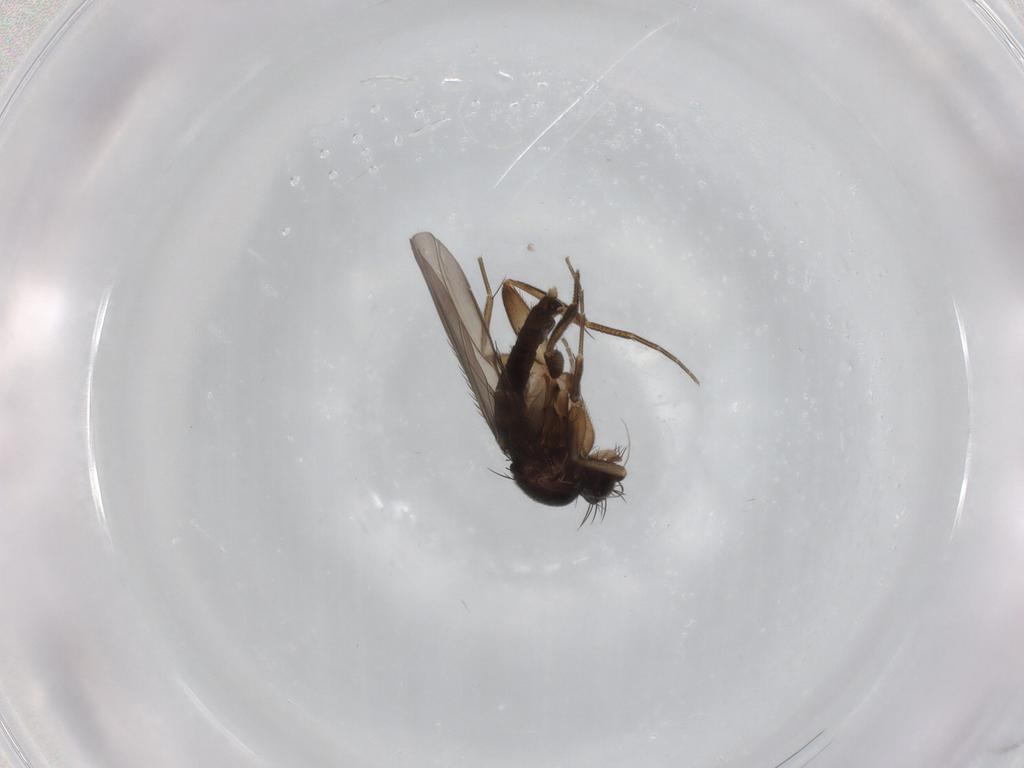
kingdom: Animalia
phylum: Arthropoda
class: Insecta
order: Diptera
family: Phoridae
